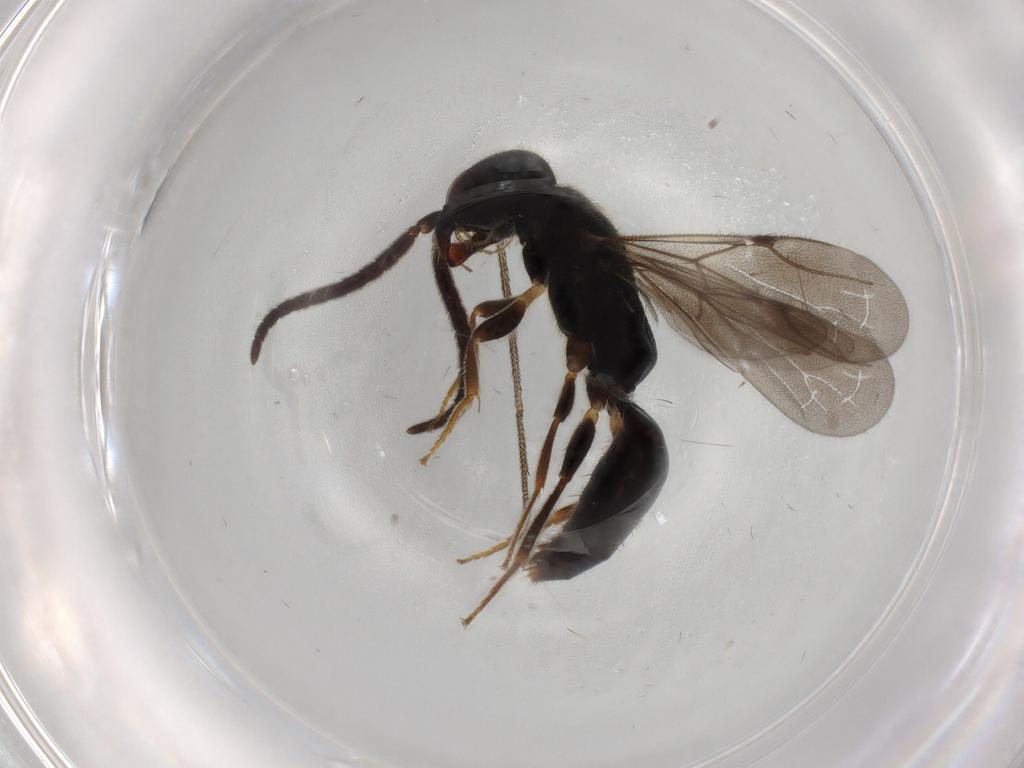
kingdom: Animalia
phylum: Arthropoda
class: Insecta
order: Hymenoptera
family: Bethylidae
